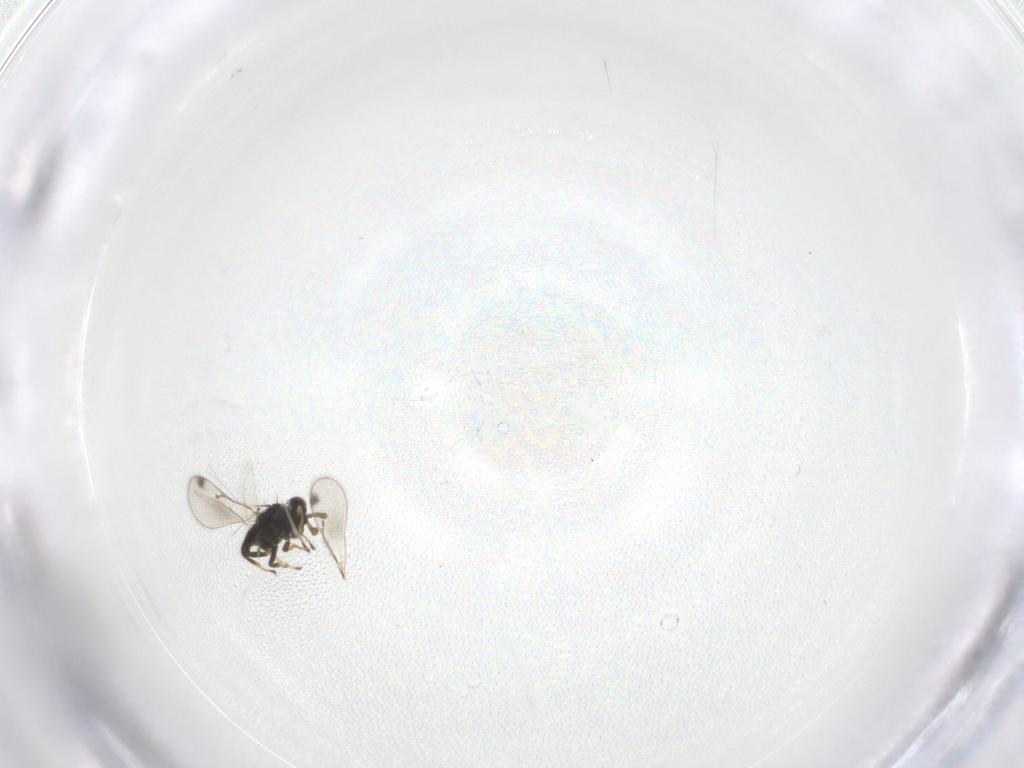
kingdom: Animalia
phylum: Arthropoda
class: Insecta
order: Hymenoptera
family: Eulophidae
